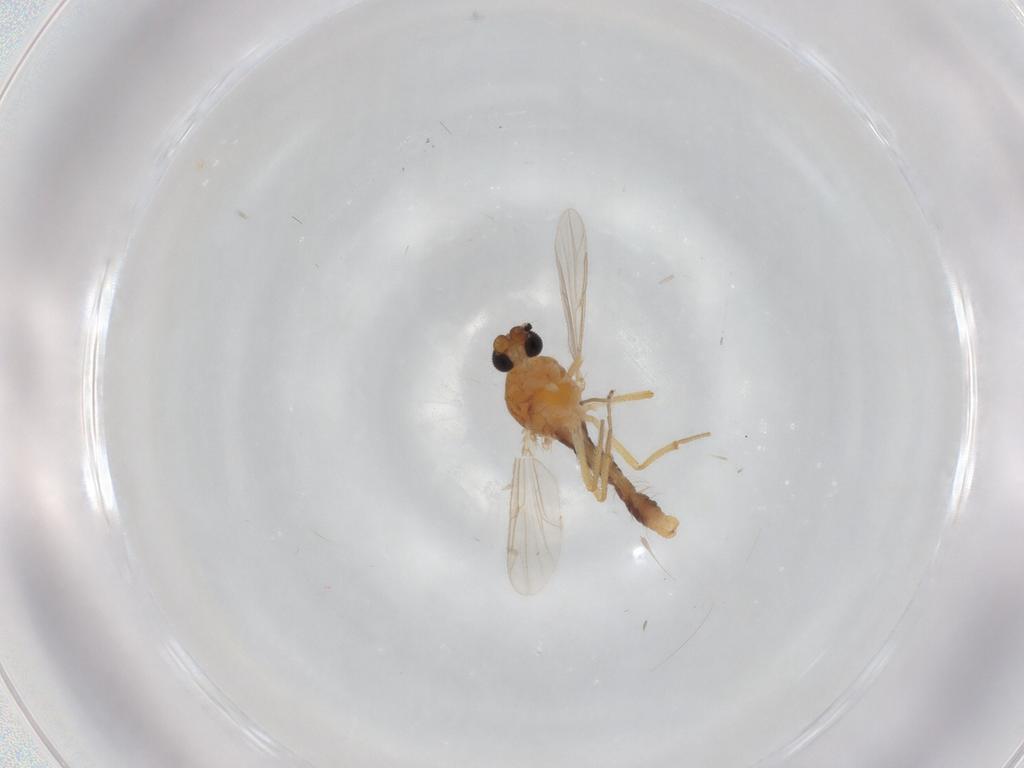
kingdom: Animalia
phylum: Arthropoda
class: Insecta
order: Diptera
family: Ceratopogonidae
